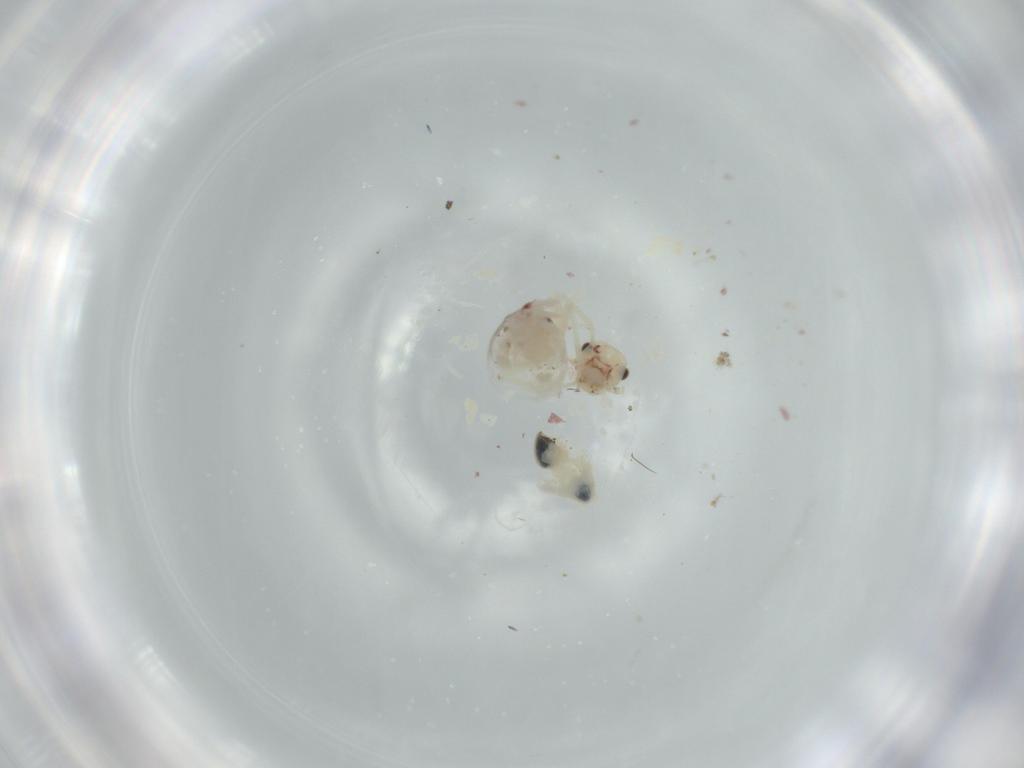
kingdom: Animalia
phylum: Arthropoda
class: Insecta
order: Psocodea
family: Caeciliusidae
